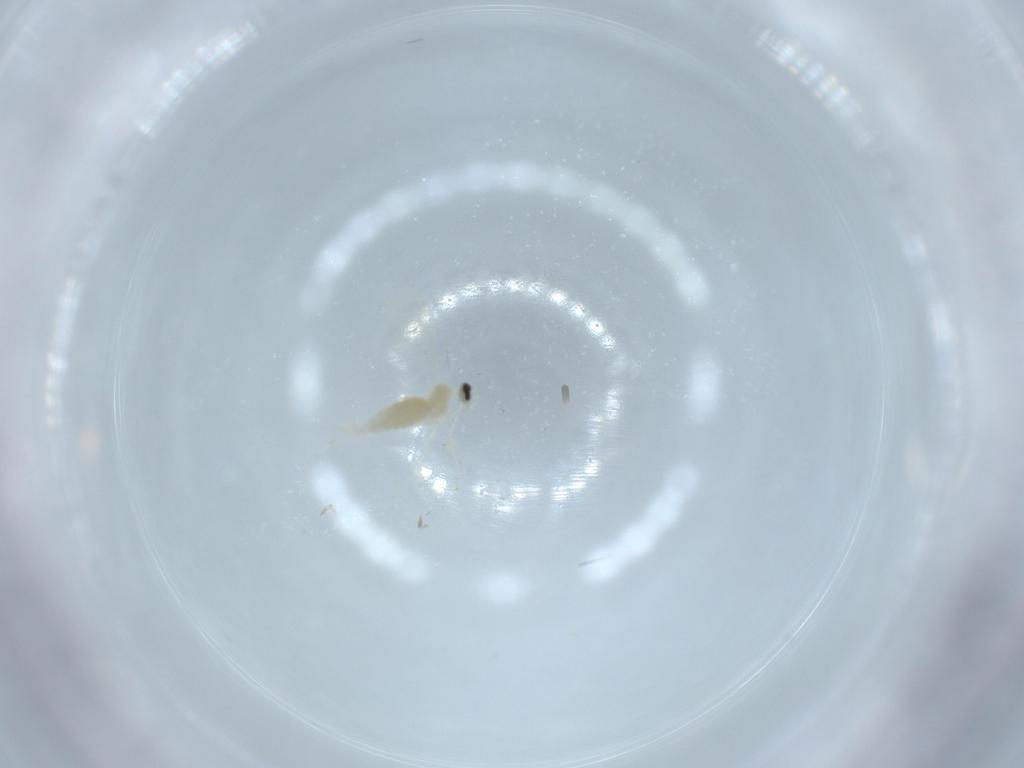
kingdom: Animalia
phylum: Arthropoda
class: Insecta
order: Diptera
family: Cecidomyiidae
